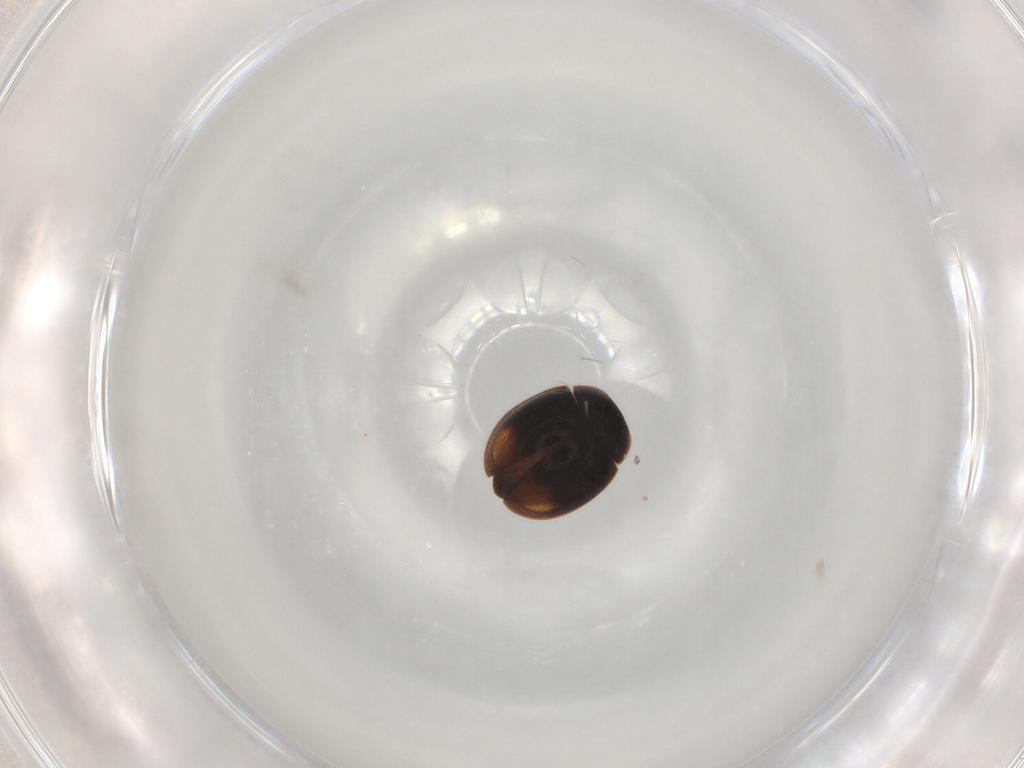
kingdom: Animalia
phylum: Arthropoda
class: Insecta
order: Coleoptera
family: Coccinellidae
